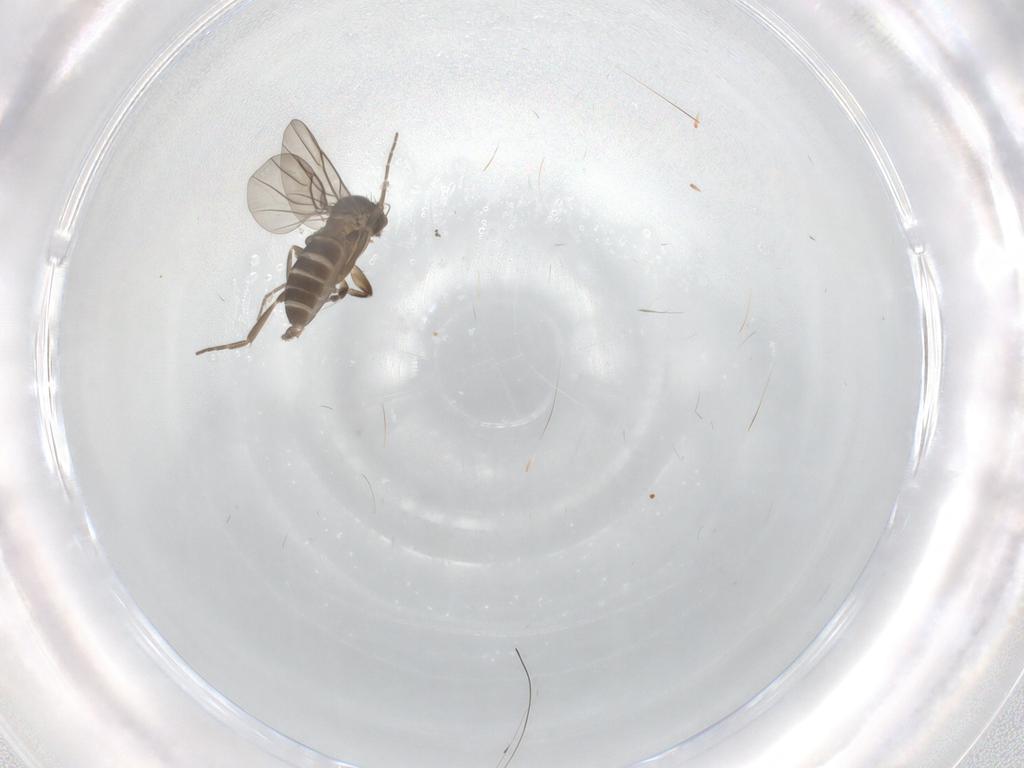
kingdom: Animalia
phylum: Arthropoda
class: Insecta
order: Diptera
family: Phoridae
